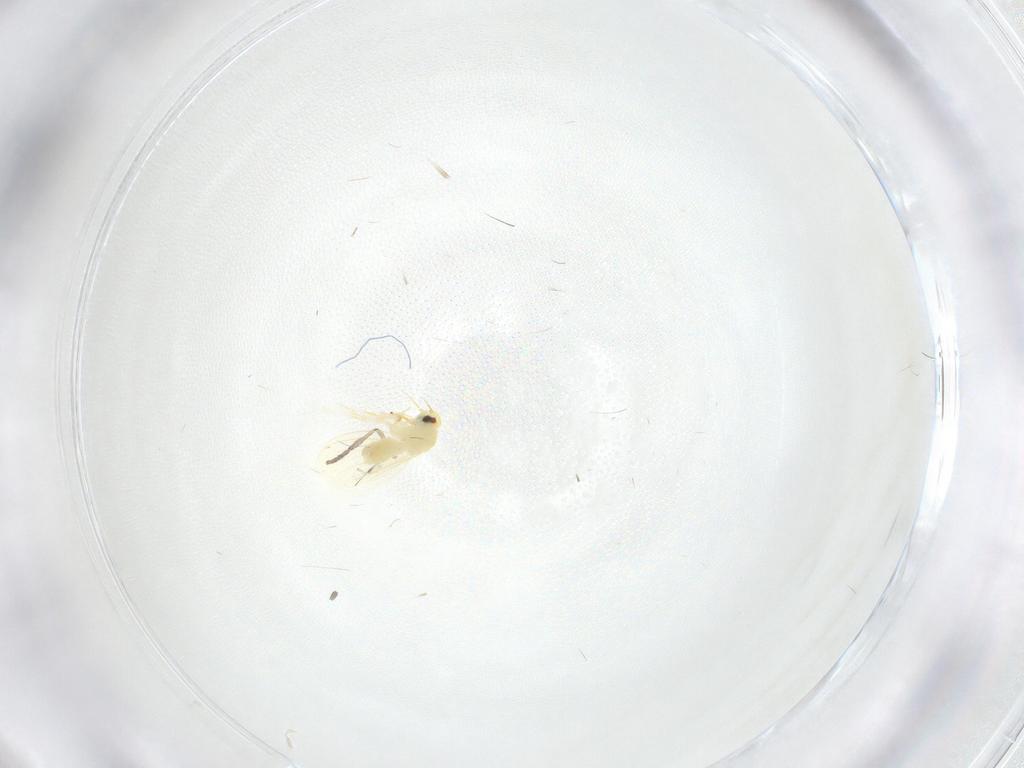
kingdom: Animalia
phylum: Arthropoda
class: Insecta
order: Hemiptera
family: Aleyrodidae
